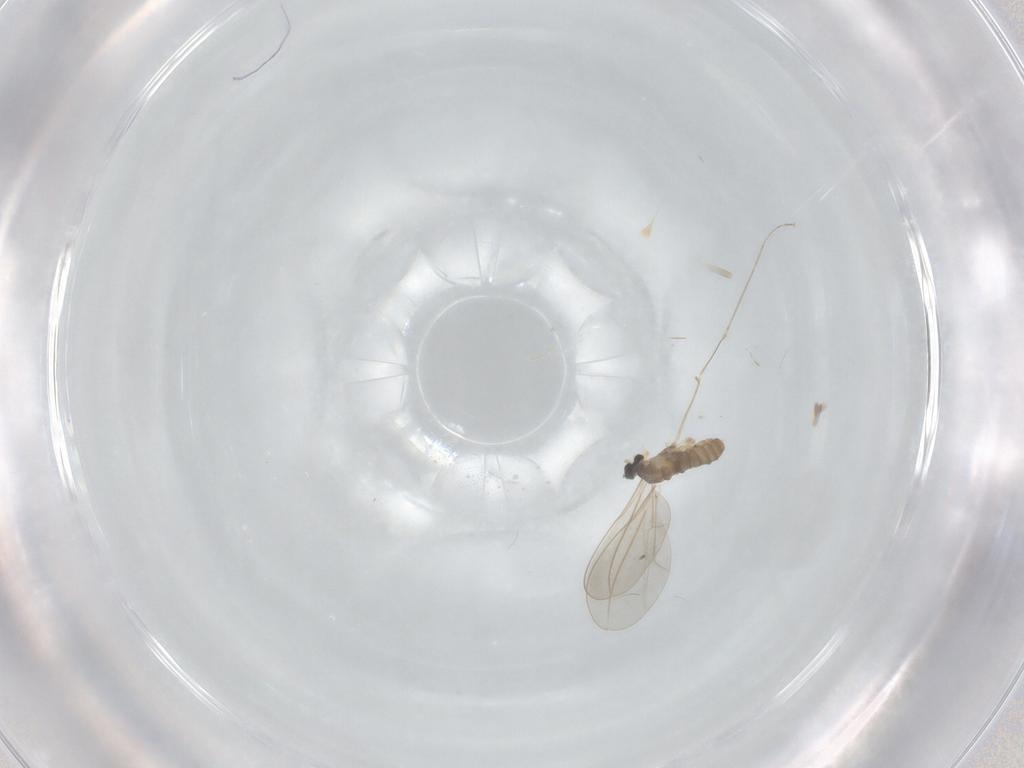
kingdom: Animalia
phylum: Arthropoda
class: Insecta
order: Diptera
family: Cecidomyiidae
